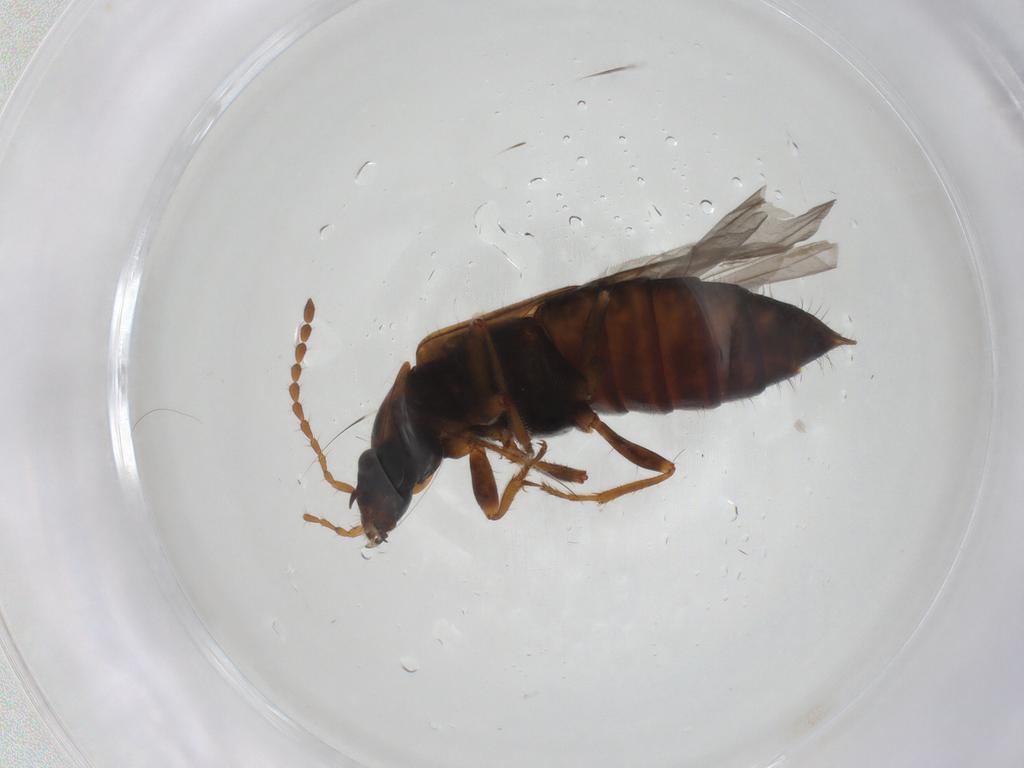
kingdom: Animalia
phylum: Arthropoda
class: Insecta
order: Coleoptera
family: Staphylinidae
